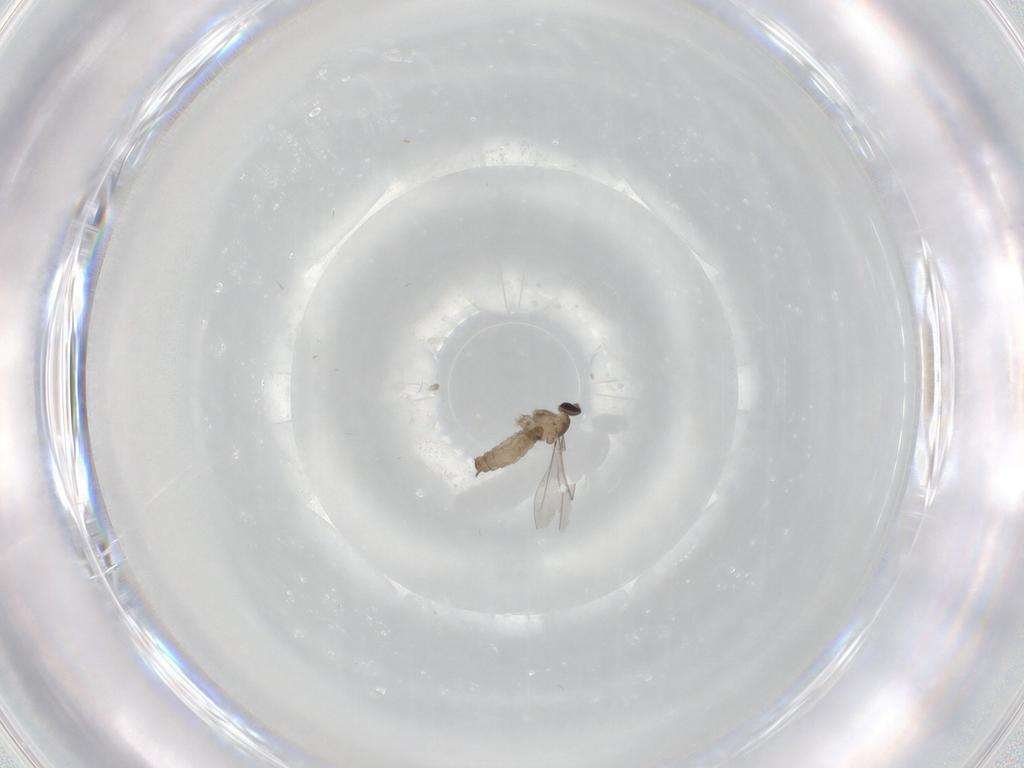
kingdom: Animalia
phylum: Arthropoda
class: Insecta
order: Diptera
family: Cecidomyiidae
